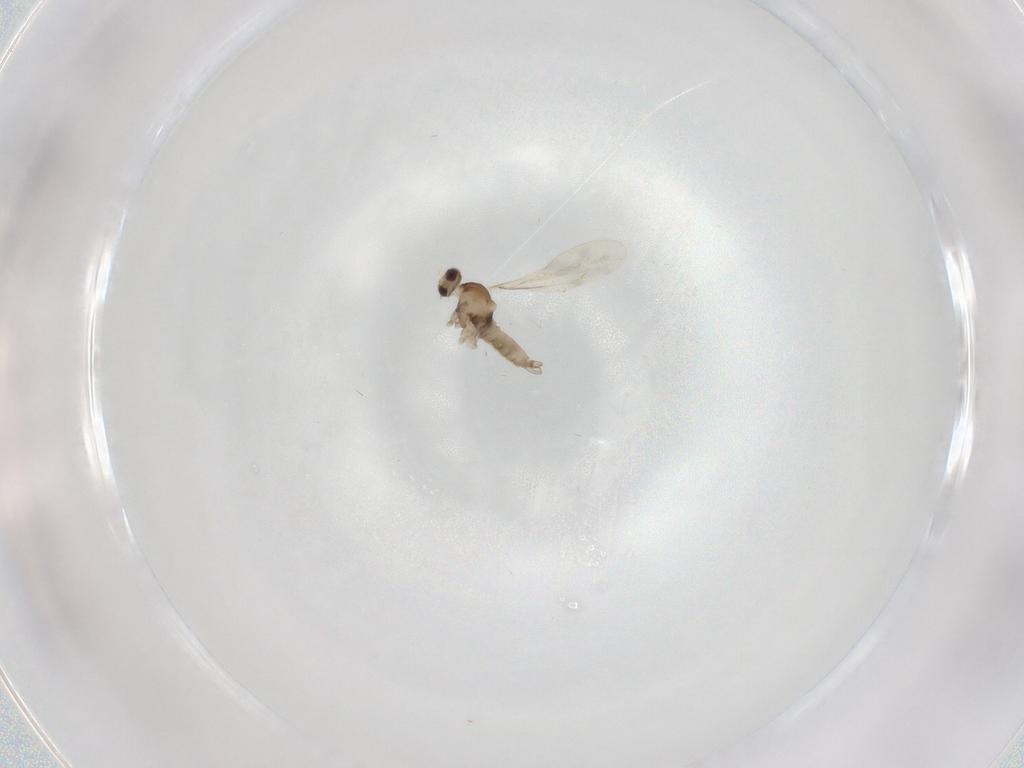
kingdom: Animalia
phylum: Arthropoda
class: Insecta
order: Diptera
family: Cecidomyiidae
